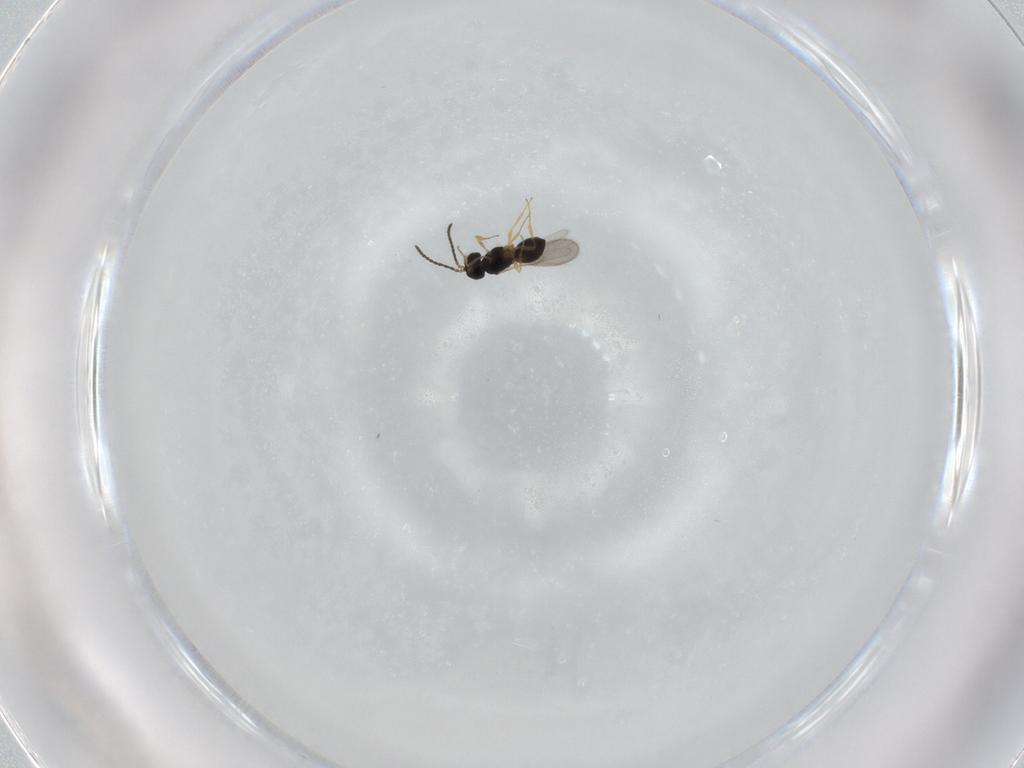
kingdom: Animalia
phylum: Arthropoda
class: Insecta
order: Hymenoptera
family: Scelionidae
